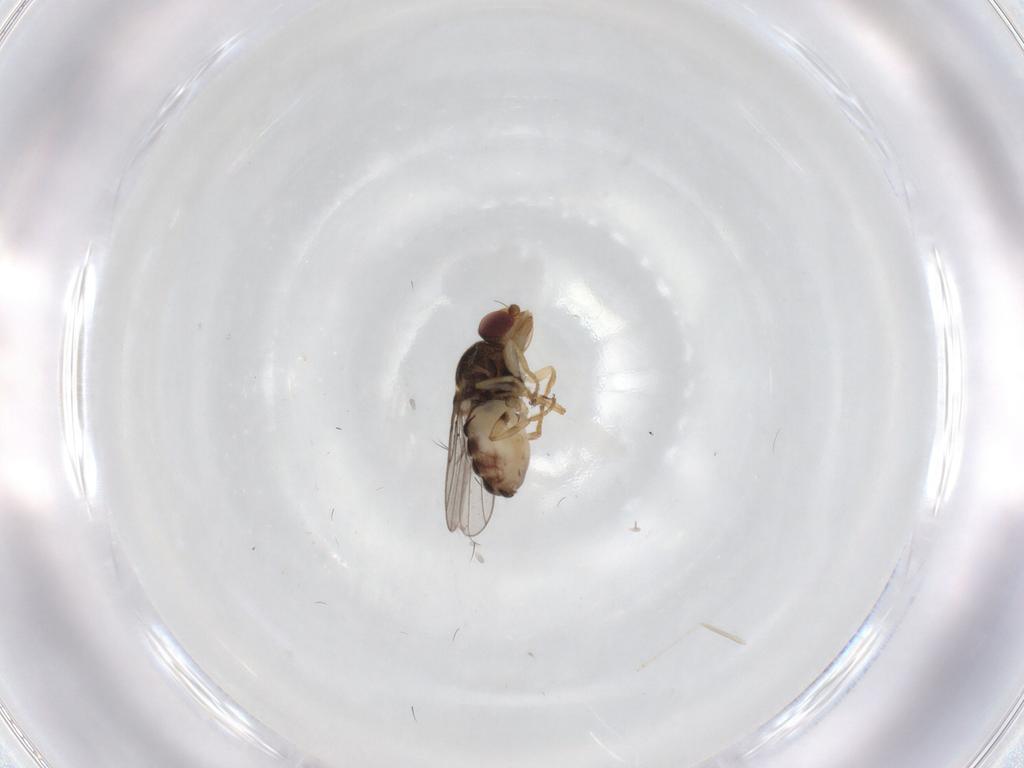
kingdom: Animalia
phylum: Arthropoda
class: Insecta
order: Diptera
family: Chloropidae
